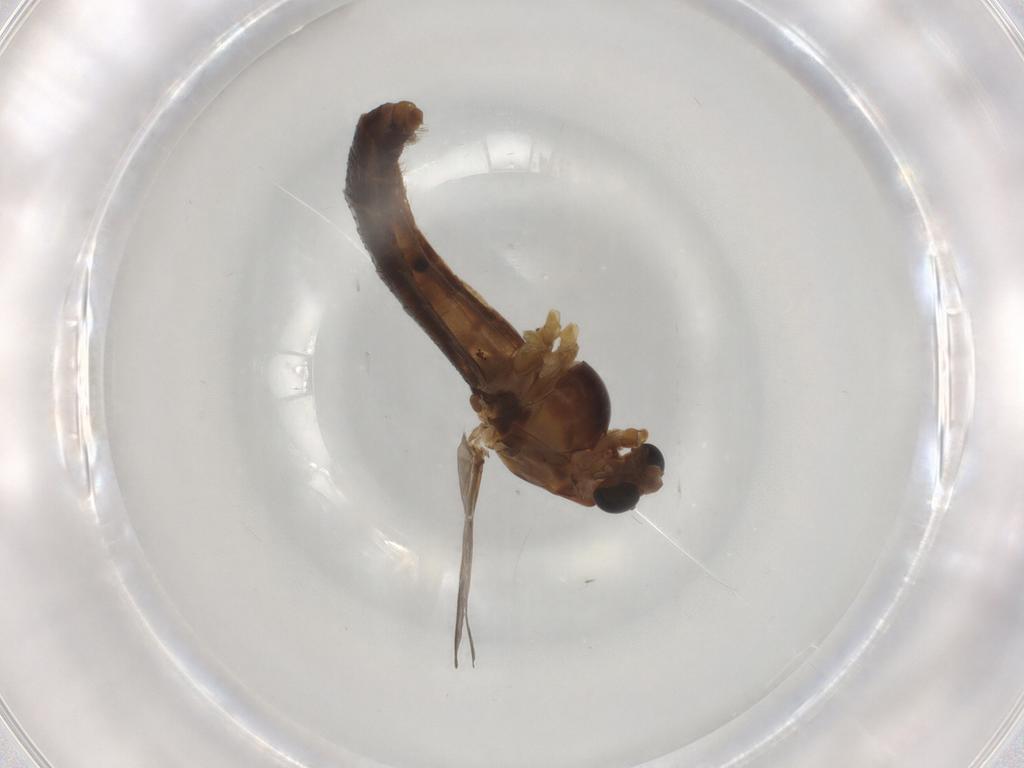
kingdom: Animalia
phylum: Arthropoda
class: Insecta
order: Diptera
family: Chironomidae
